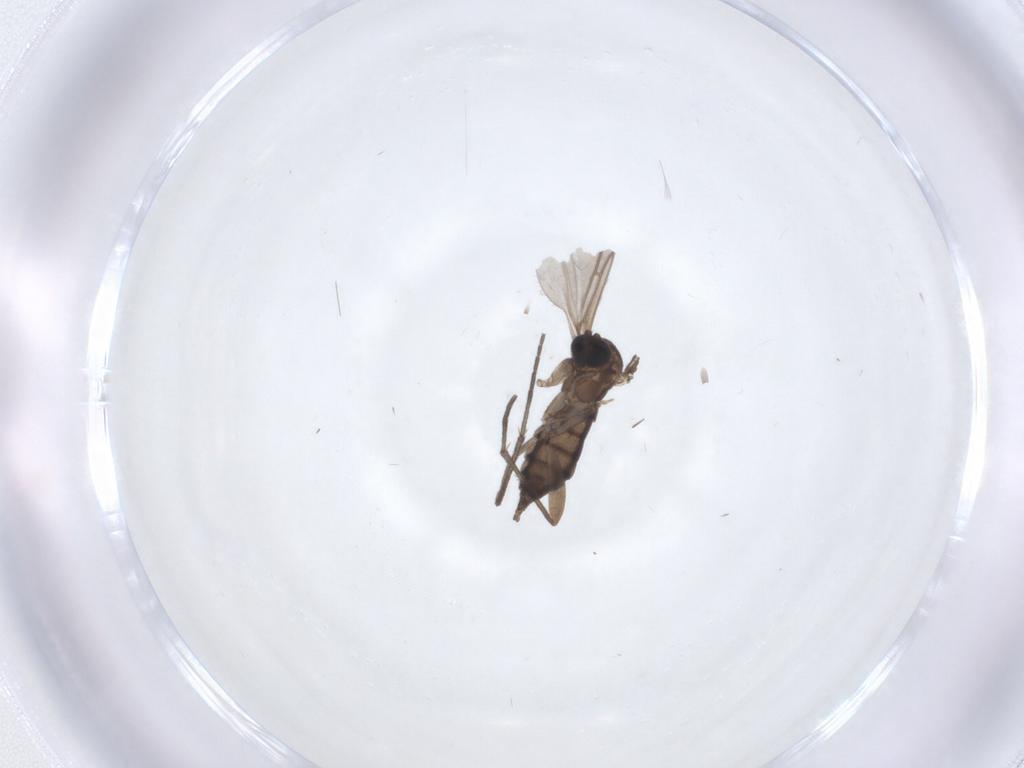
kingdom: Animalia
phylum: Arthropoda
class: Insecta
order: Diptera
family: Sciaridae
